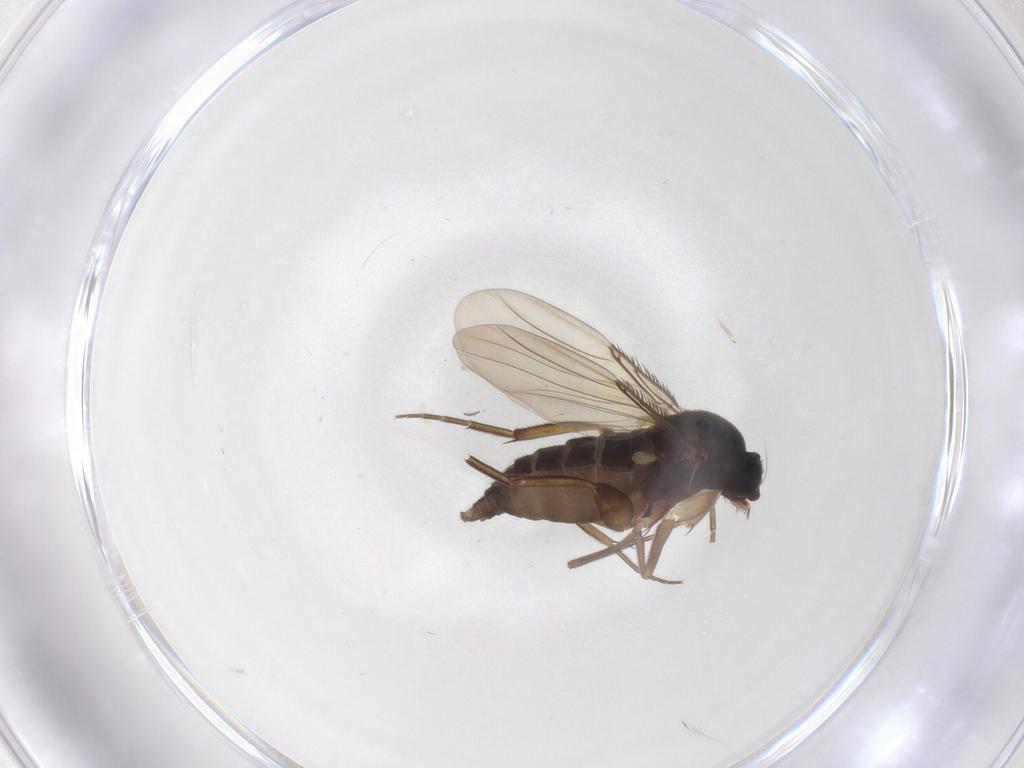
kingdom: Animalia
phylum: Arthropoda
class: Insecta
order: Diptera
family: Phoridae
